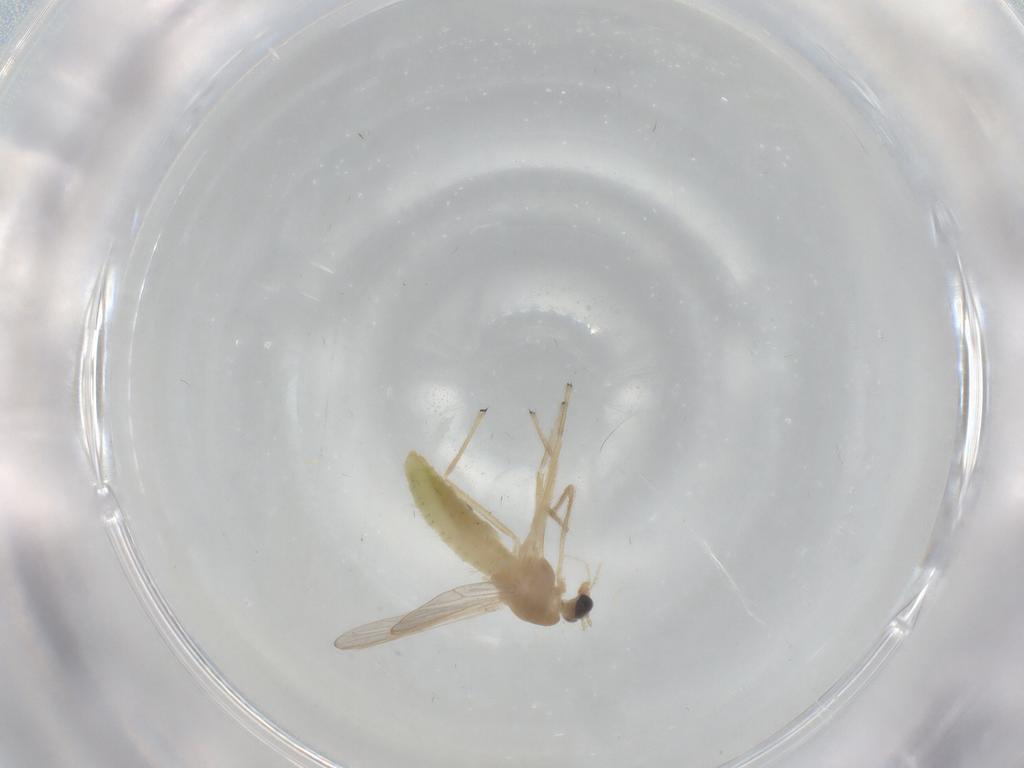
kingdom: Animalia
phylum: Arthropoda
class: Insecta
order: Diptera
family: Chironomidae
